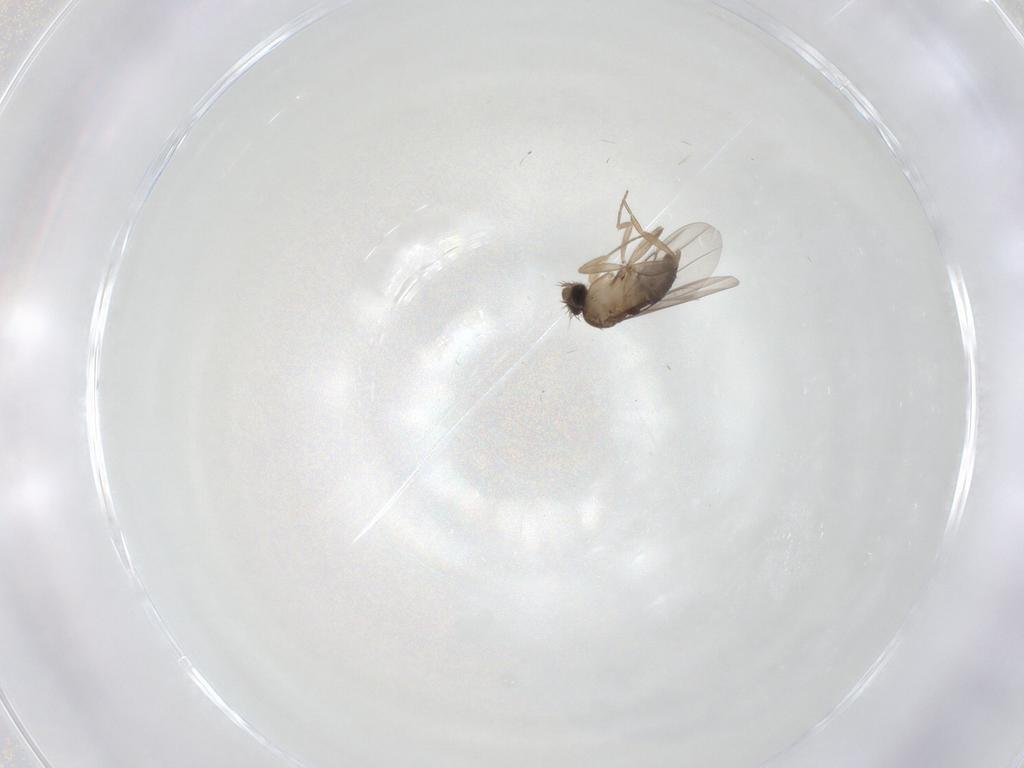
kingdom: Animalia
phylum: Arthropoda
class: Insecta
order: Diptera
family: Phoridae
